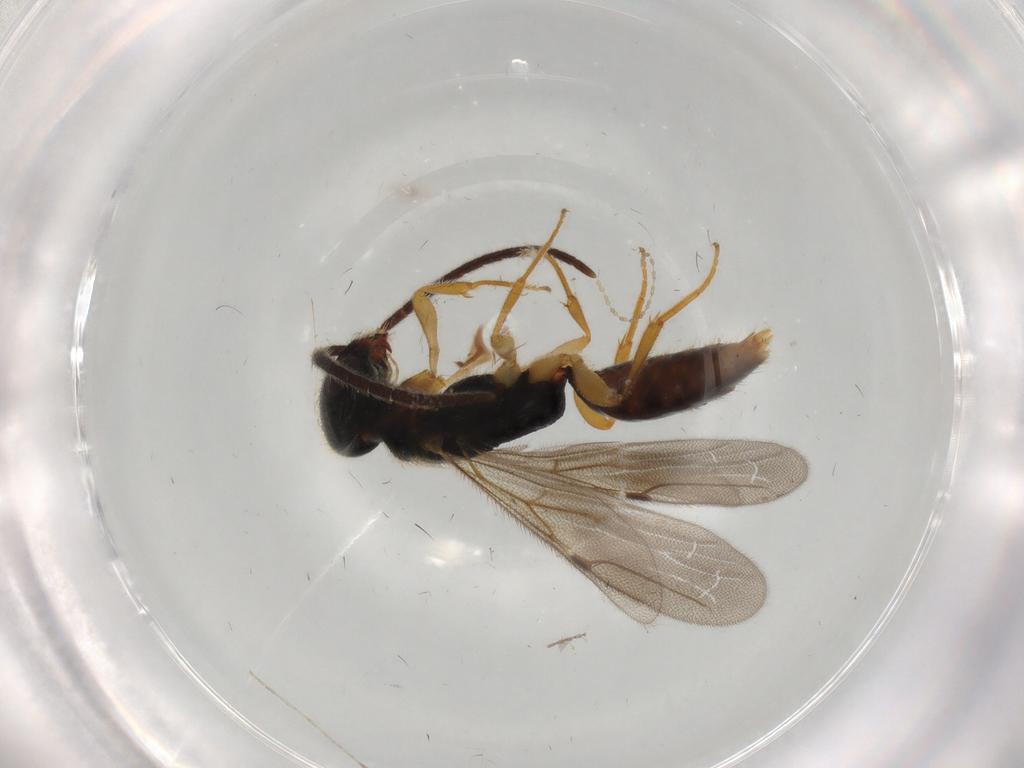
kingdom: Animalia
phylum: Arthropoda
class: Insecta
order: Hymenoptera
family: Bethylidae
